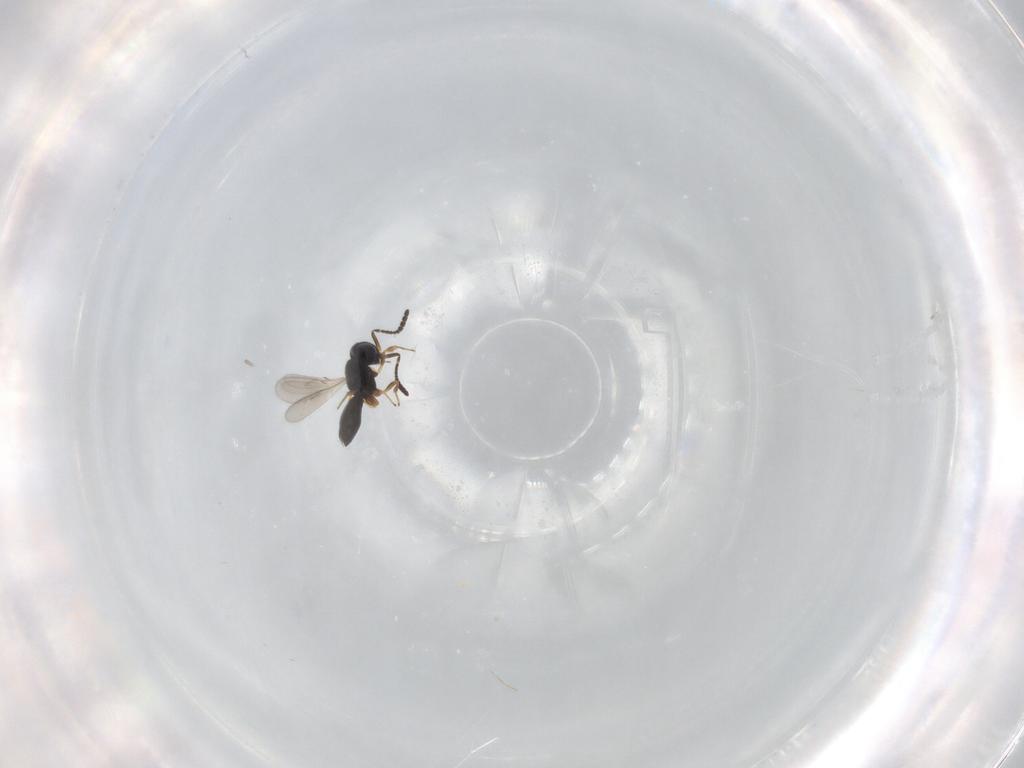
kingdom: Animalia
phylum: Arthropoda
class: Insecta
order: Hymenoptera
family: Scelionidae
